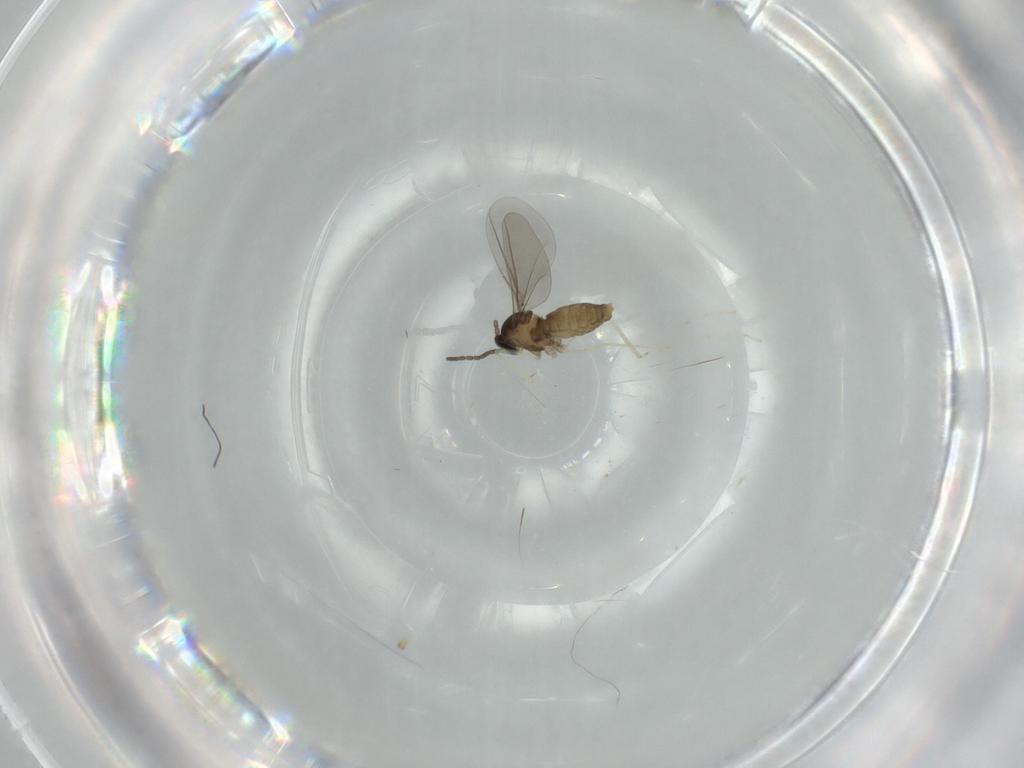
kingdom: Animalia
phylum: Arthropoda
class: Insecta
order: Diptera
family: Cecidomyiidae
